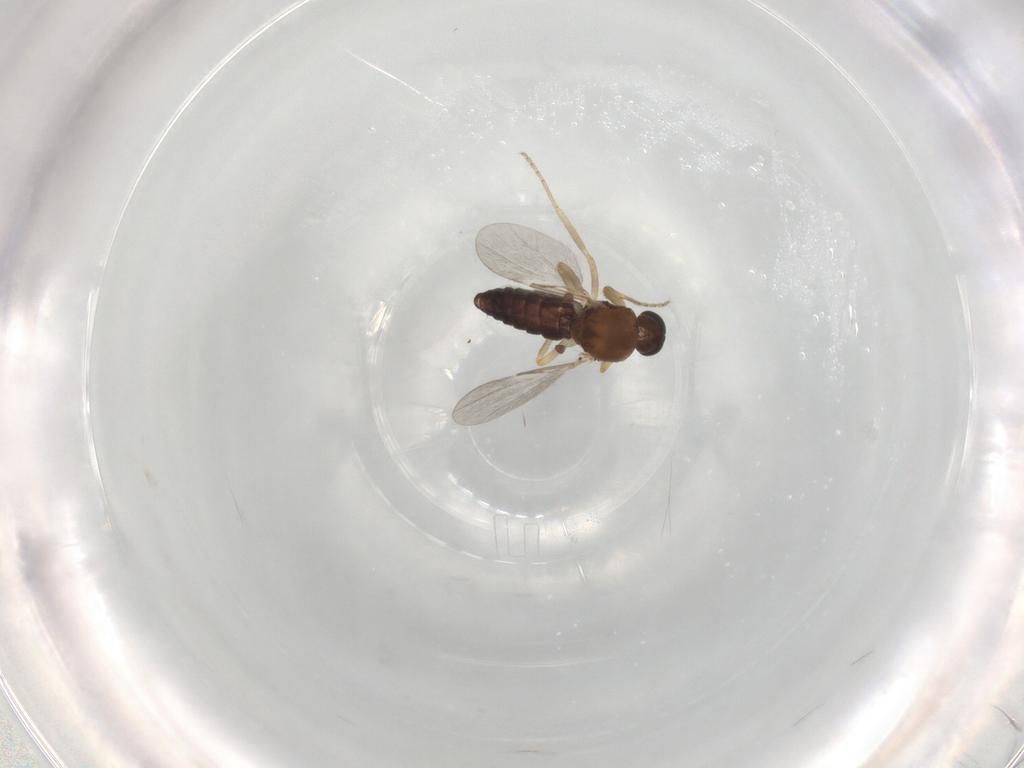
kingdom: Animalia
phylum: Arthropoda
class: Insecta
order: Diptera
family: Ceratopogonidae
